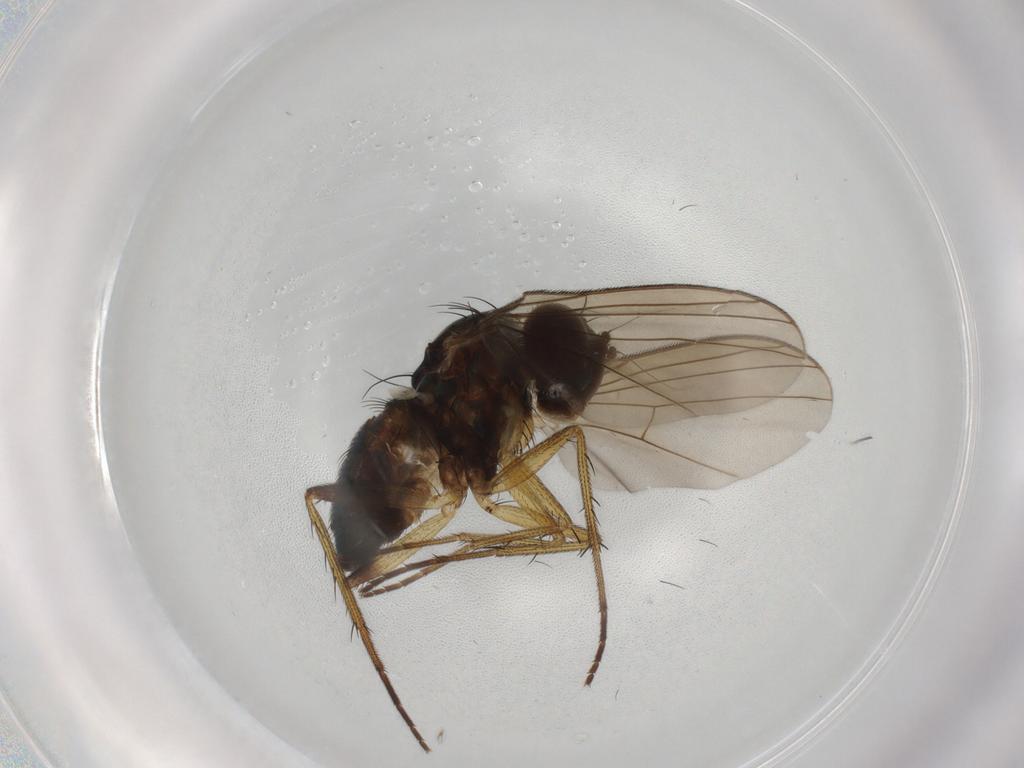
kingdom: Animalia
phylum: Arthropoda
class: Insecta
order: Diptera
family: Dolichopodidae
